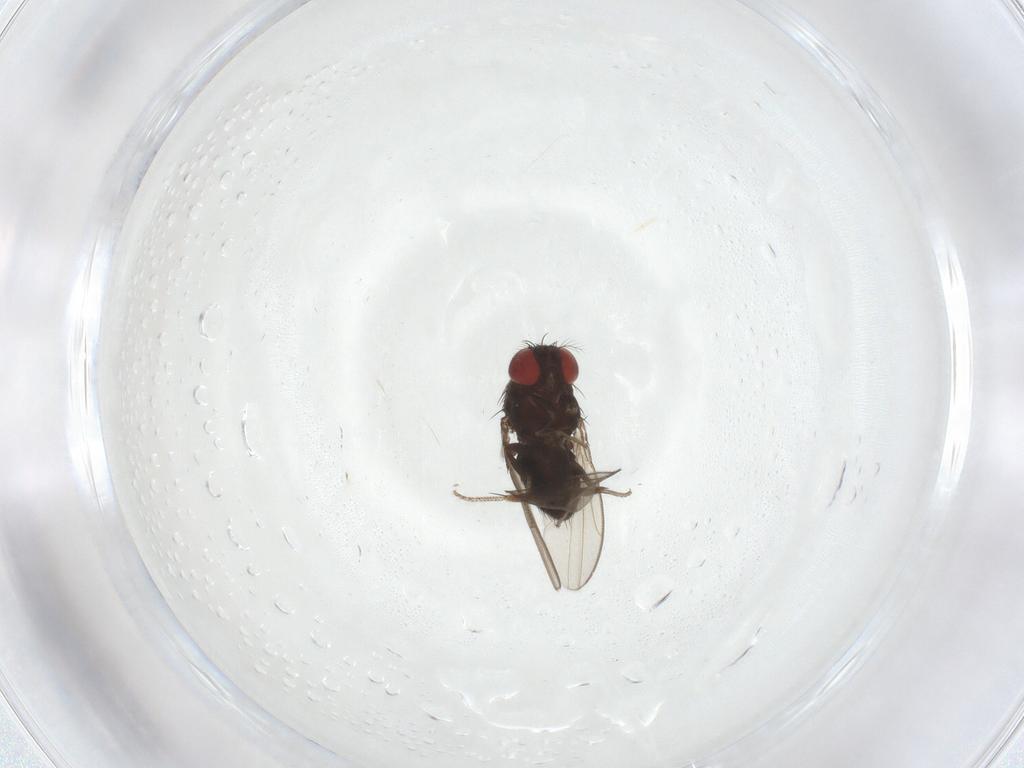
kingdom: Animalia
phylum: Arthropoda
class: Insecta
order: Diptera
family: Drosophilidae
